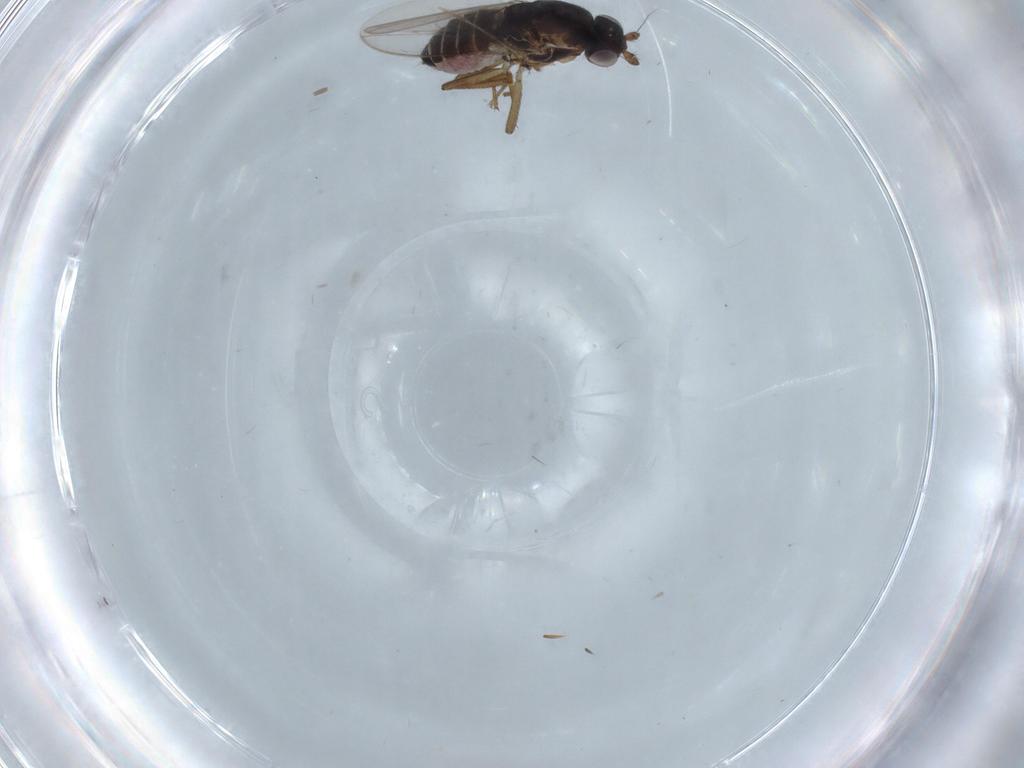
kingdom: Animalia
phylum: Arthropoda
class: Insecta
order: Diptera
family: Sphaeroceridae
